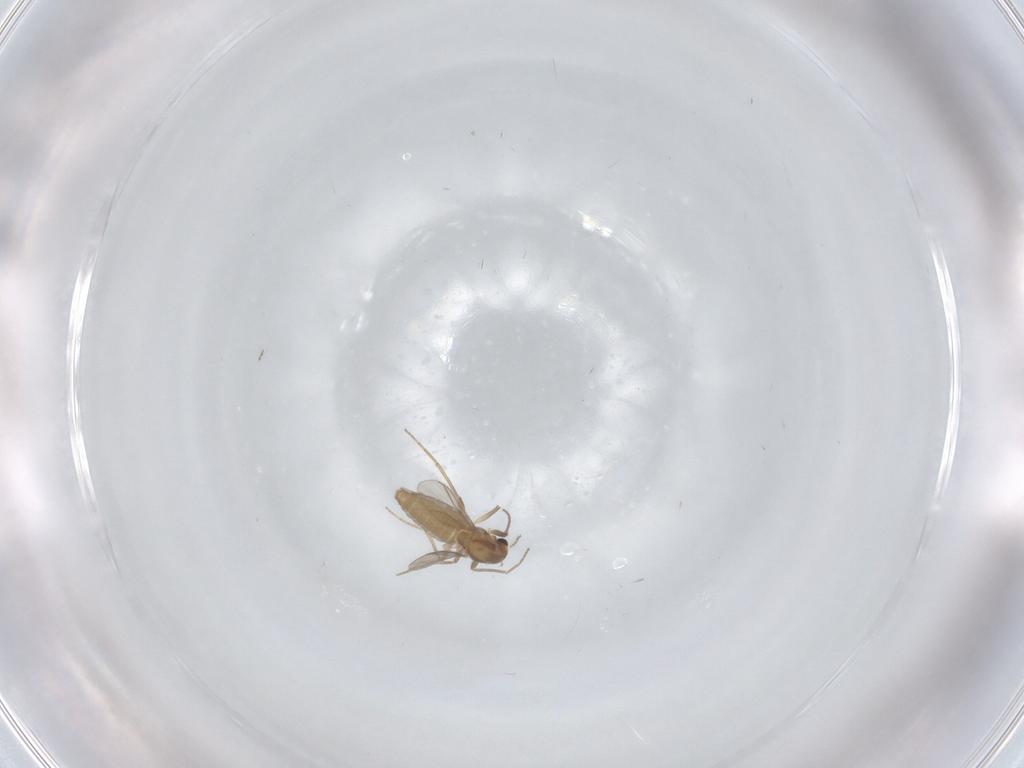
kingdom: Animalia
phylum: Arthropoda
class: Insecta
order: Diptera
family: Chironomidae
